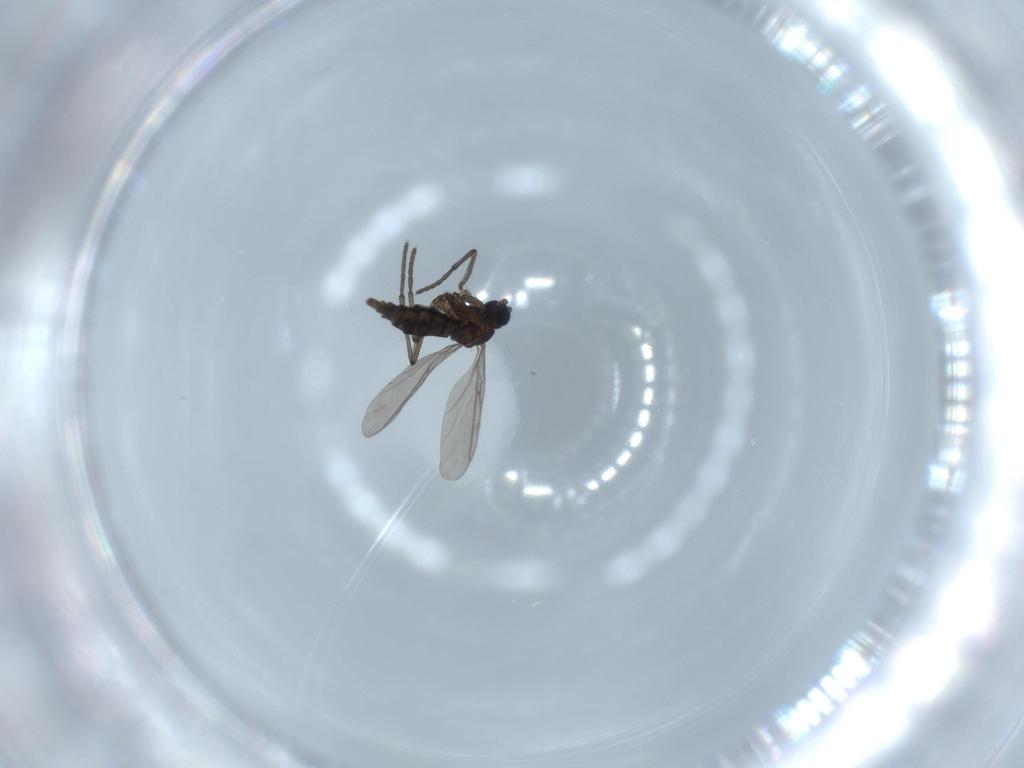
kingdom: Animalia
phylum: Arthropoda
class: Insecta
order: Diptera
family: Sciaridae
